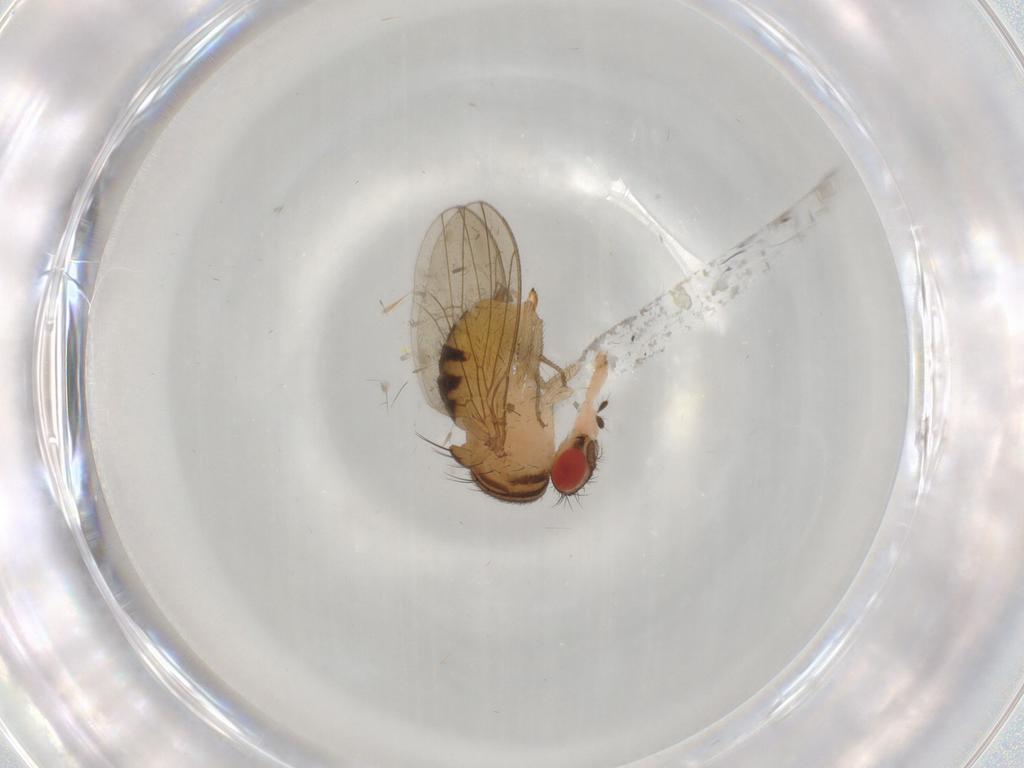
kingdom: Animalia
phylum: Arthropoda
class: Insecta
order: Diptera
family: Drosophilidae
